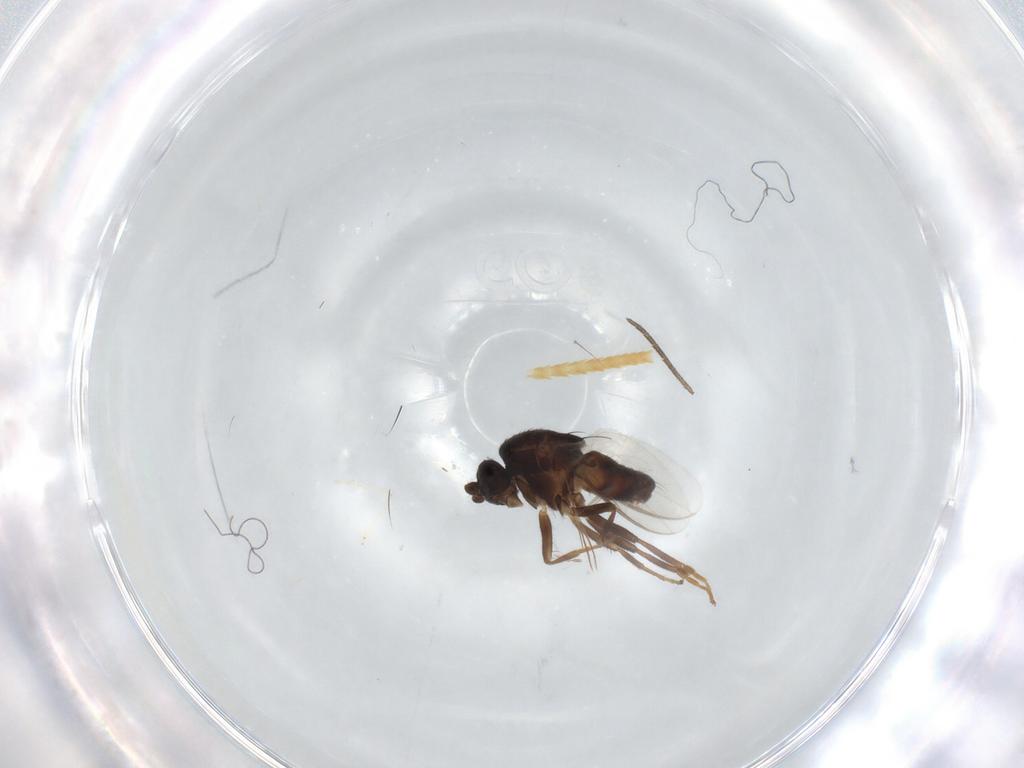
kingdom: Animalia
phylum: Arthropoda
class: Insecta
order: Diptera
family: Sphaeroceridae
